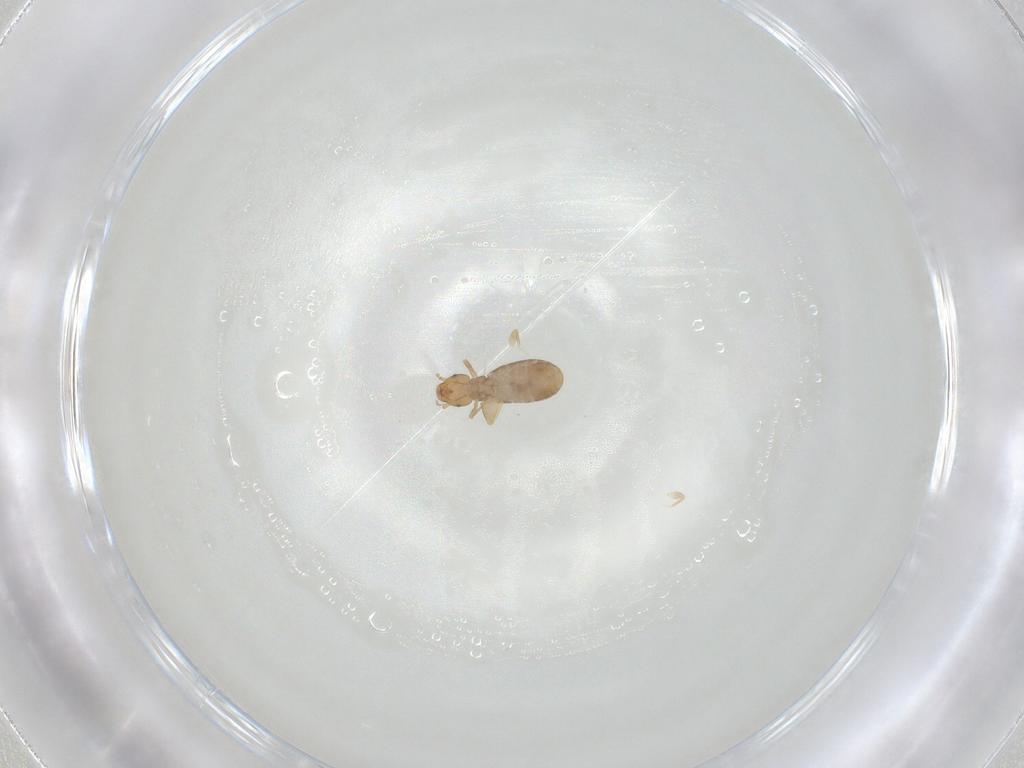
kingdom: Animalia
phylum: Arthropoda
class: Insecta
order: Psocodea
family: Liposcelididae
